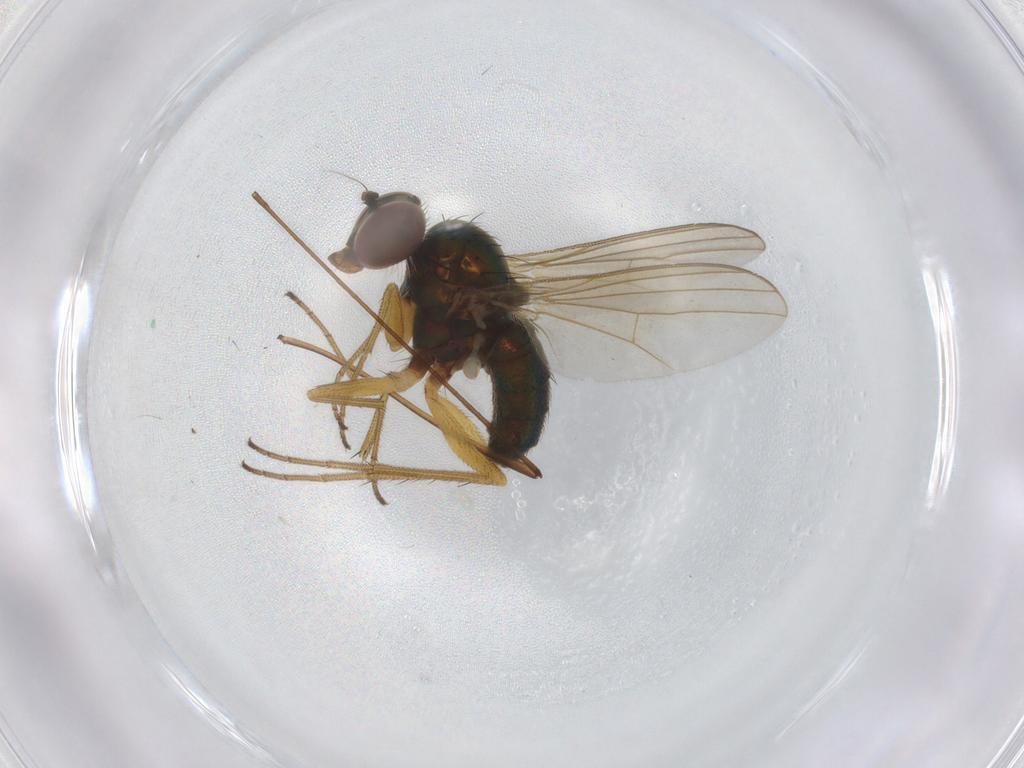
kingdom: Animalia
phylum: Arthropoda
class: Insecta
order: Diptera
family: Dolichopodidae
